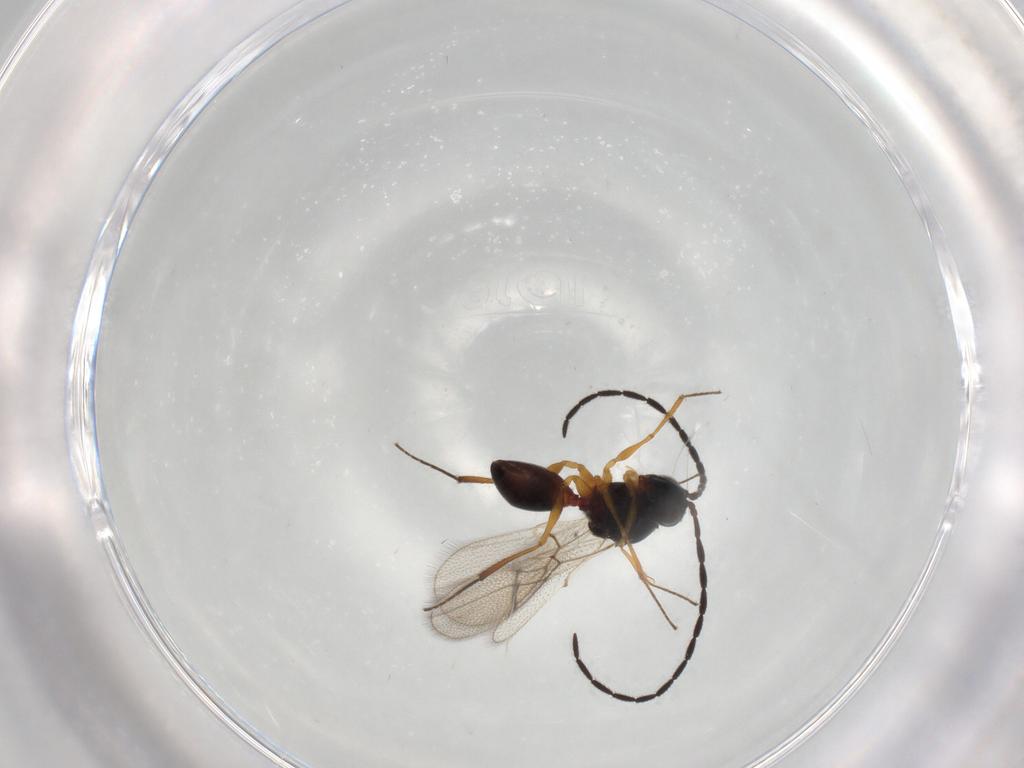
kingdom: Animalia
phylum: Arthropoda
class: Insecta
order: Hymenoptera
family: Figitidae
